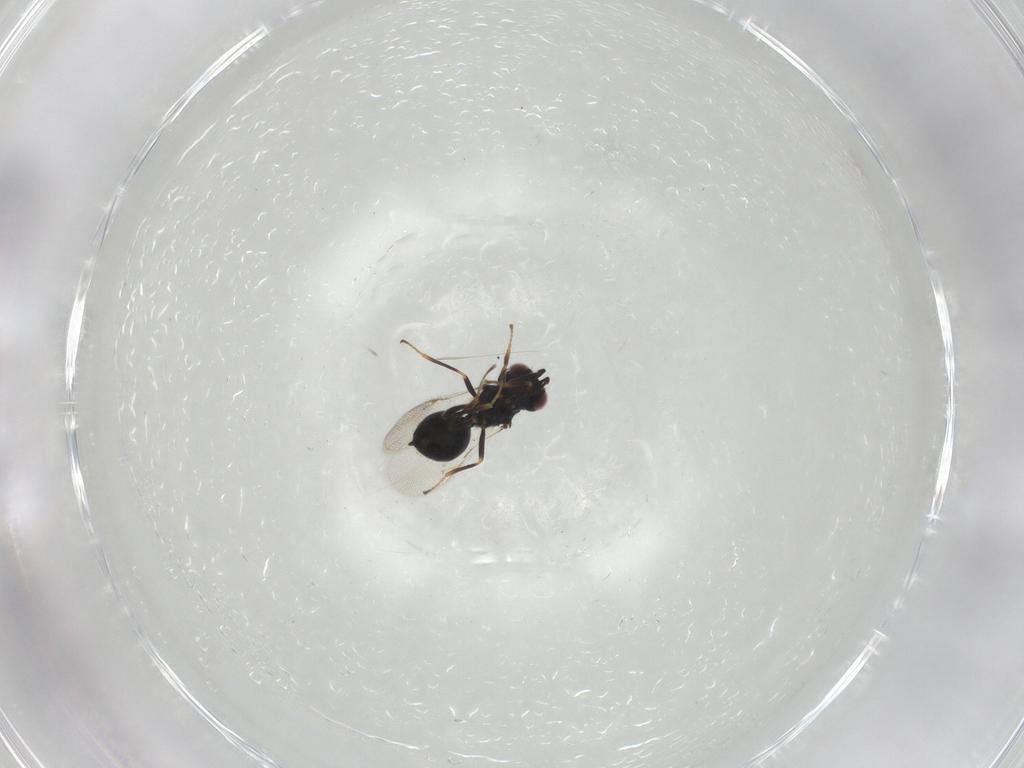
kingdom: Animalia
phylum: Arthropoda
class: Insecta
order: Hymenoptera
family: Chalcidoidea_incertae_sedis
